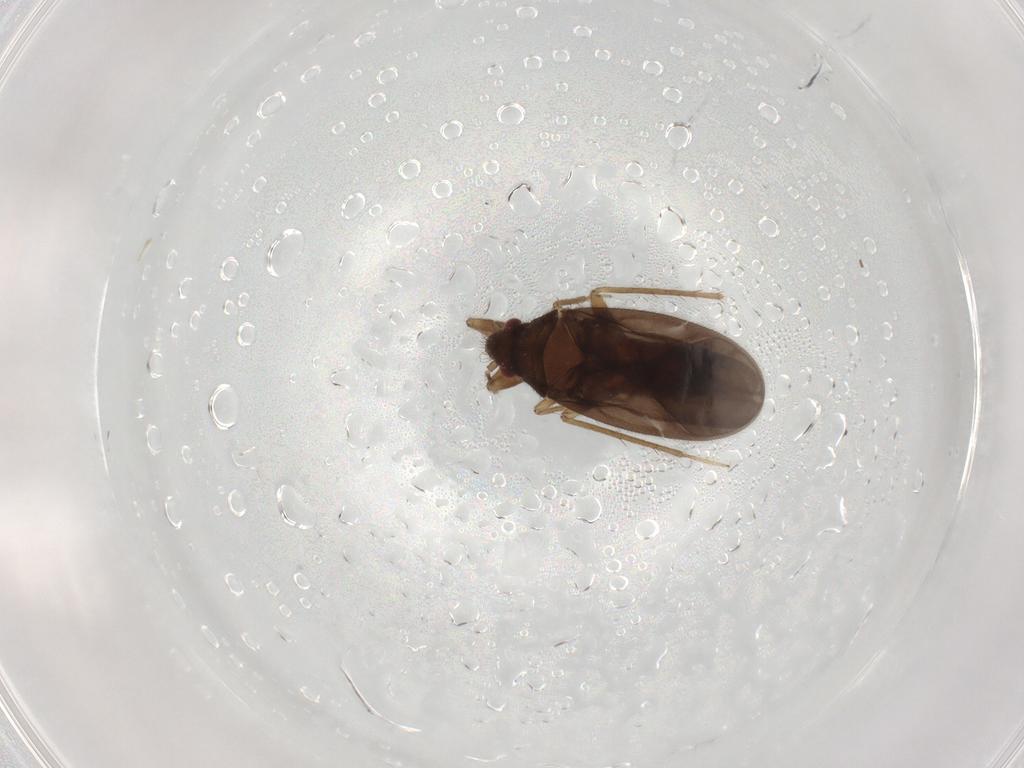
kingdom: Animalia
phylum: Arthropoda
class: Insecta
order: Hemiptera
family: Ceratocombidae
